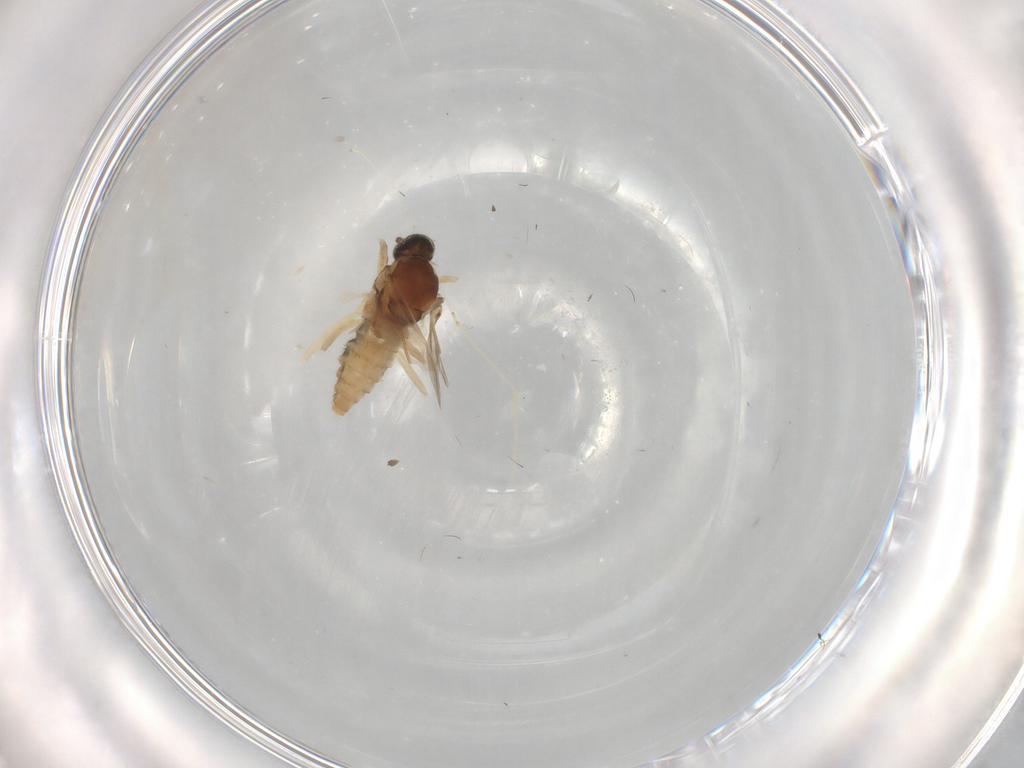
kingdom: Animalia
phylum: Arthropoda
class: Insecta
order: Diptera
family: Cecidomyiidae
